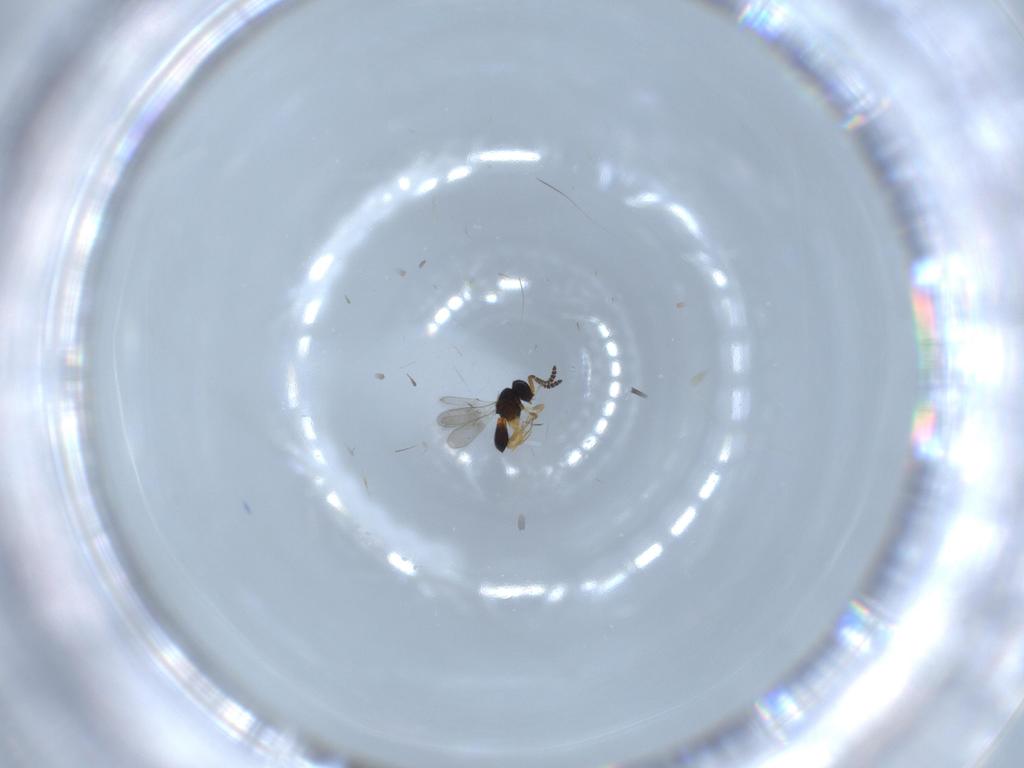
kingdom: Animalia
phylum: Arthropoda
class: Insecta
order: Hymenoptera
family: Scelionidae
